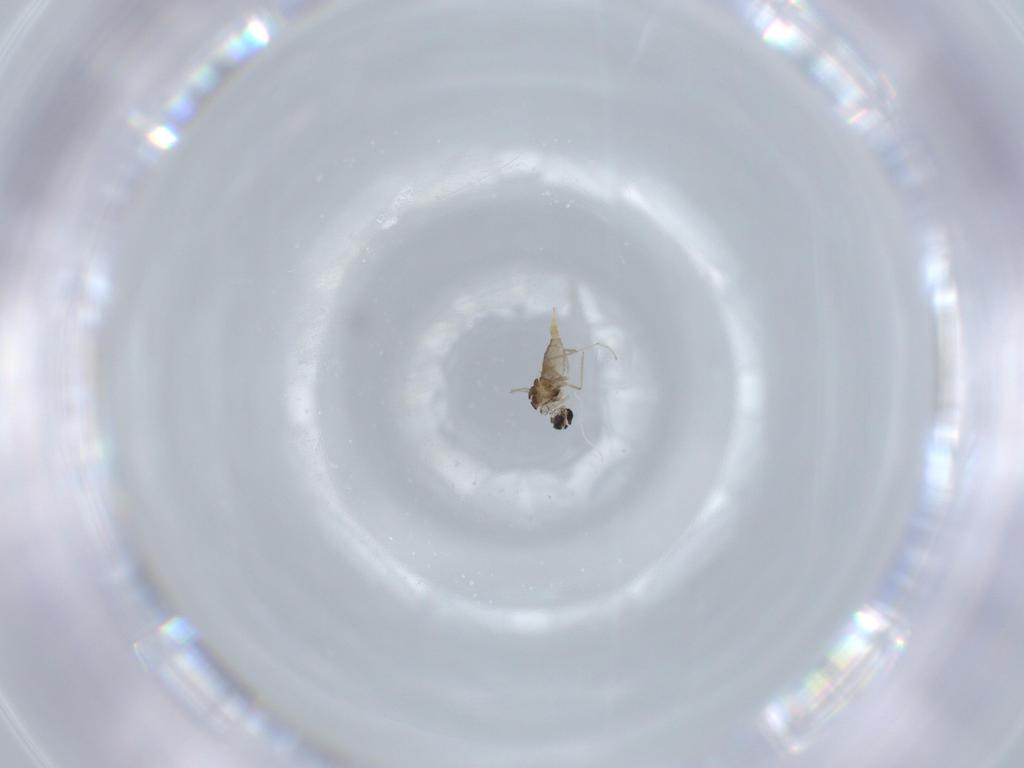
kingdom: Animalia
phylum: Arthropoda
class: Insecta
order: Diptera
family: Cecidomyiidae
